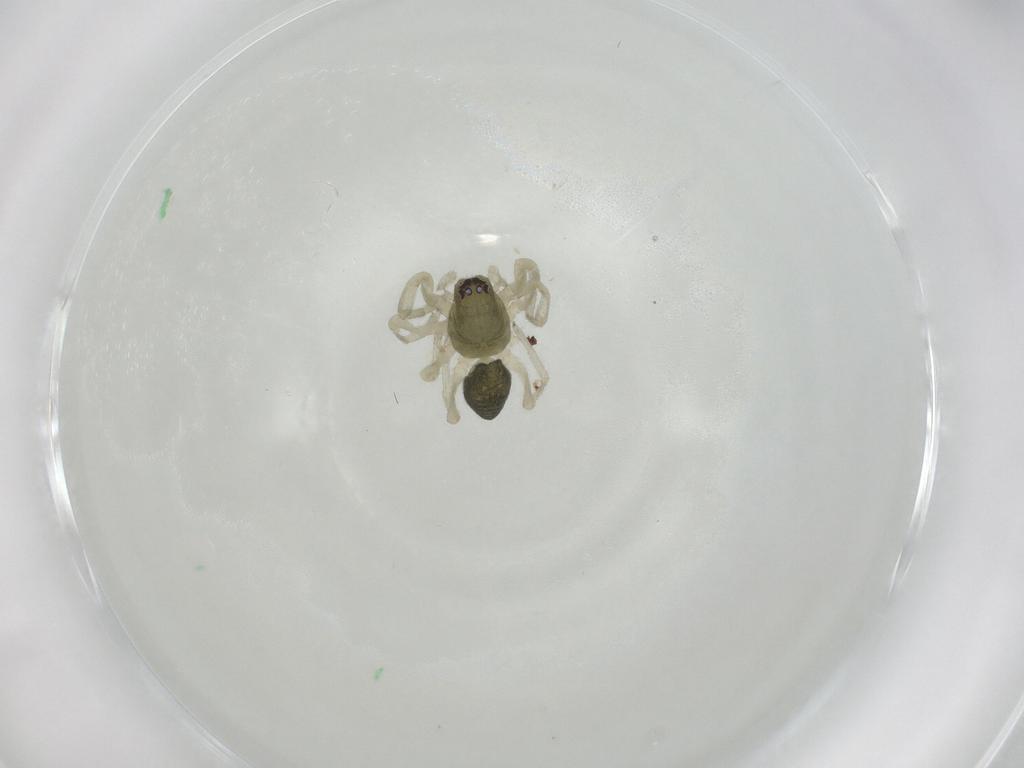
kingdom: Animalia
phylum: Arthropoda
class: Arachnida
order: Araneae
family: Trachelidae
